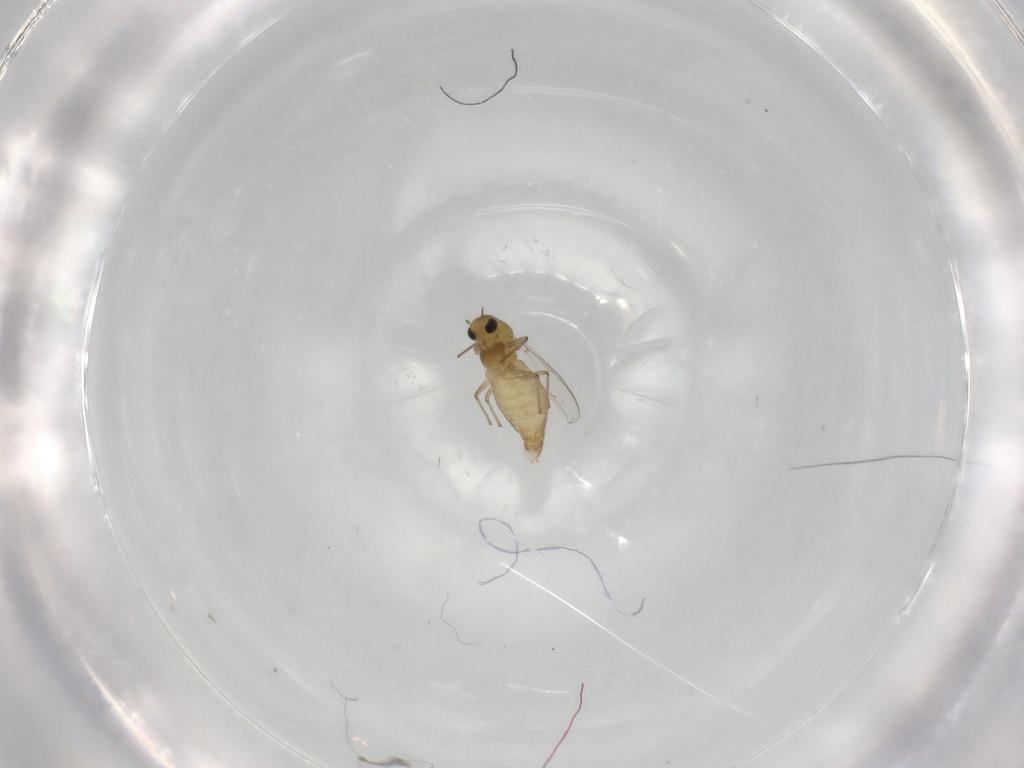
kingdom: Animalia
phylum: Arthropoda
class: Insecta
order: Diptera
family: Chironomidae
